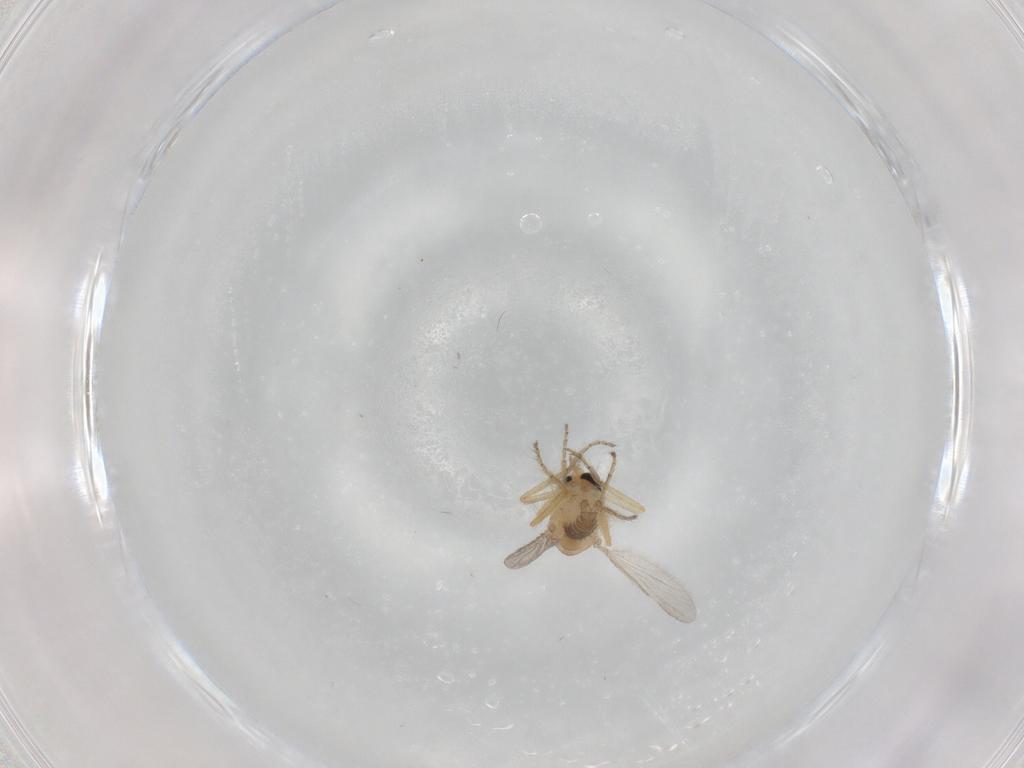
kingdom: Animalia
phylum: Arthropoda
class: Insecta
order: Diptera
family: Ceratopogonidae
